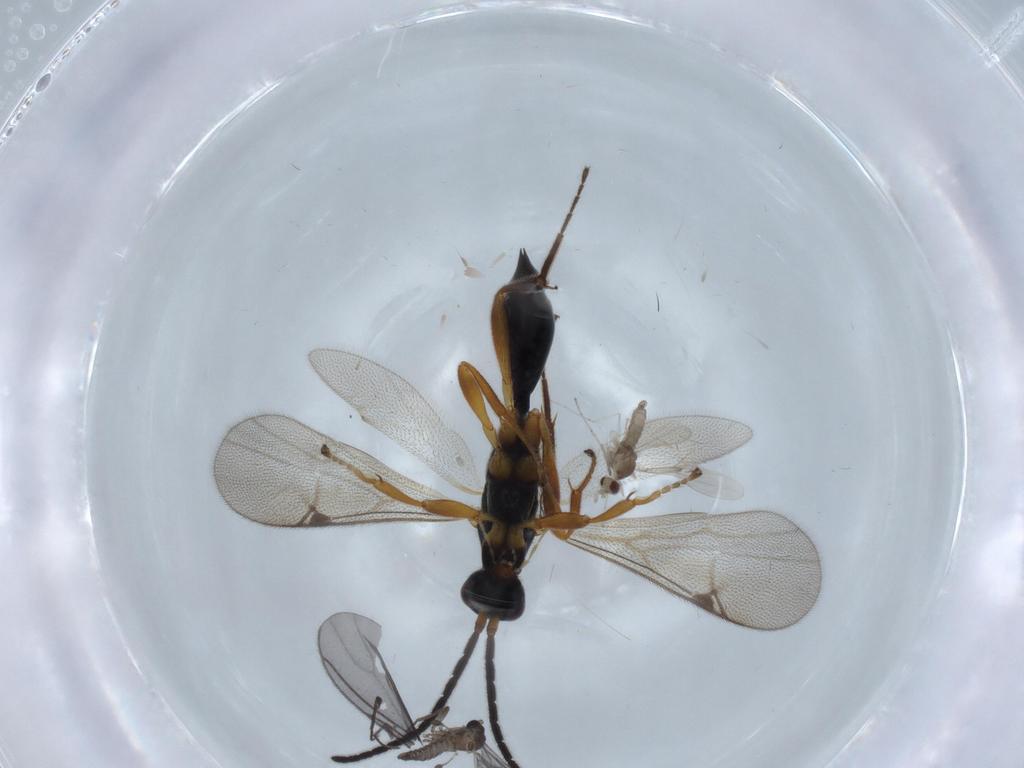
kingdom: Animalia
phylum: Arthropoda
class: Insecta
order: Diptera
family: Sciaridae
